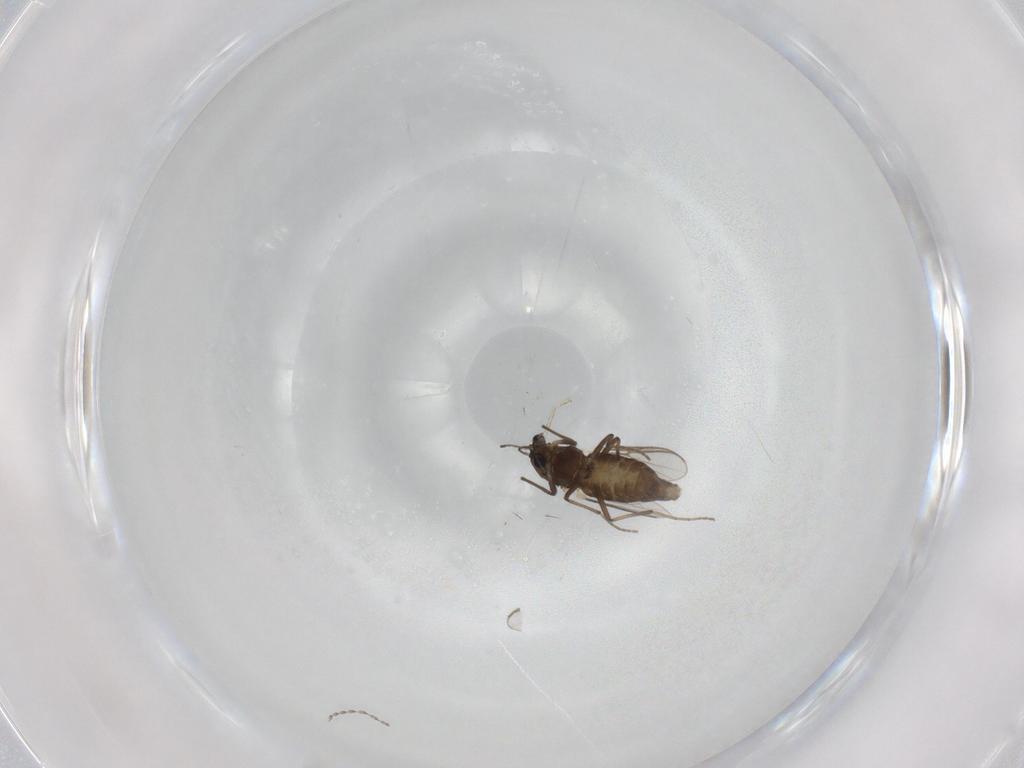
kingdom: Animalia
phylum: Arthropoda
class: Insecta
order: Diptera
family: Chironomidae
